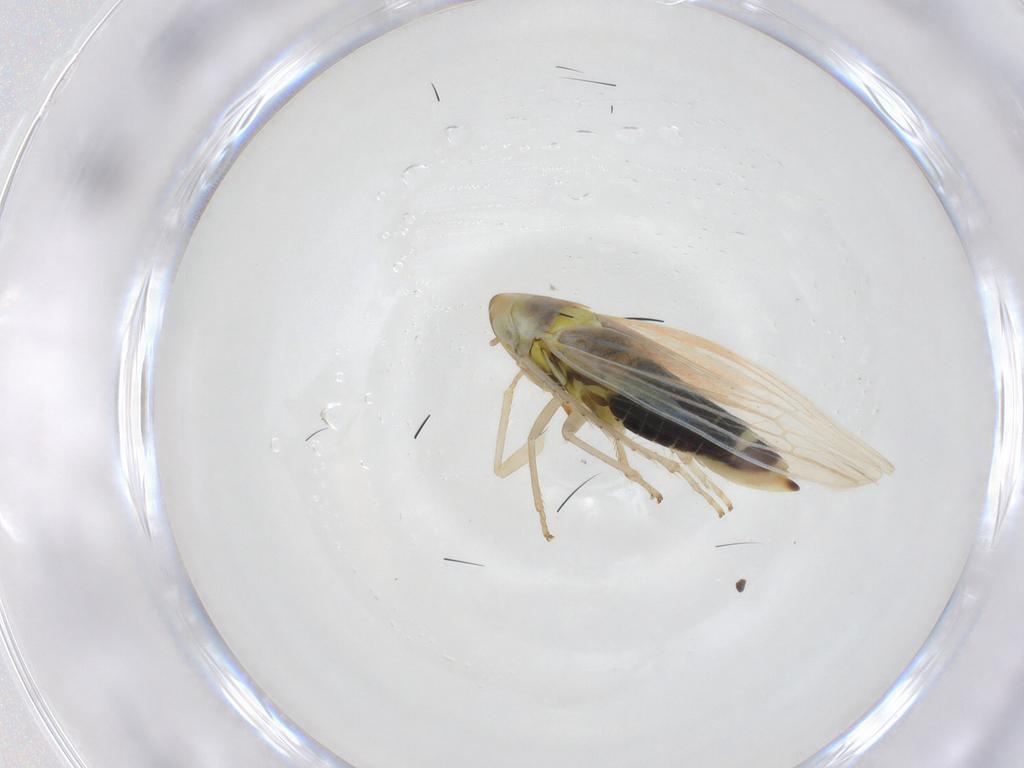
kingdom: Animalia
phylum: Arthropoda
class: Insecta
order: Hemiptera
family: Cicadellidae
